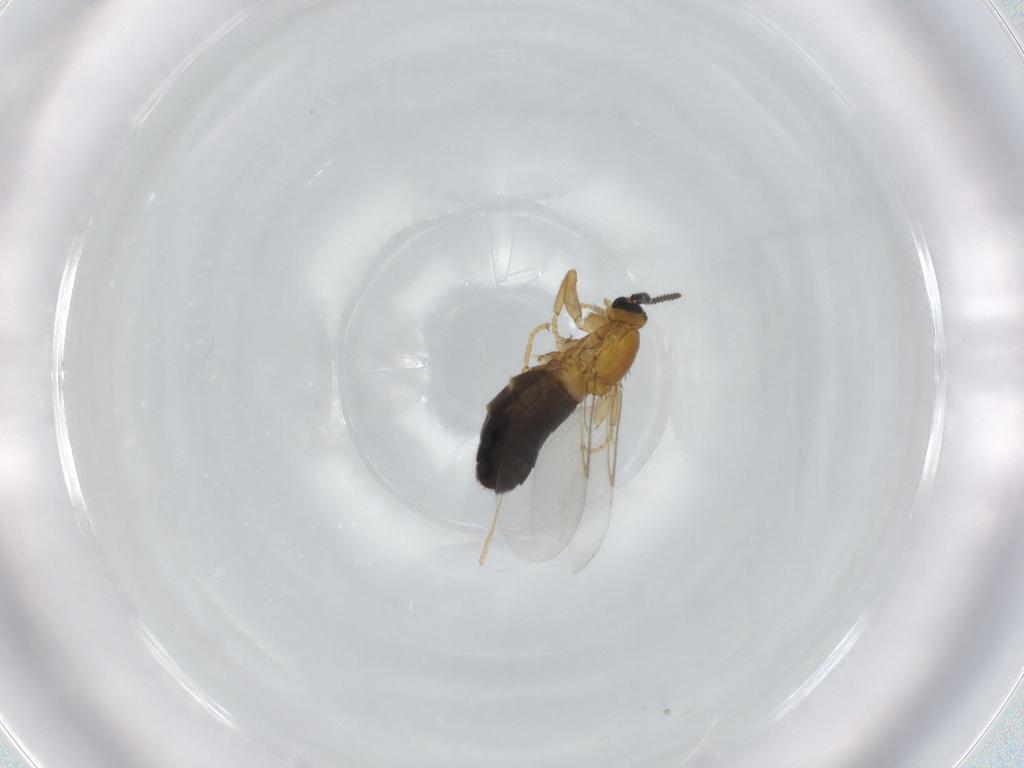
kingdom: Animalia
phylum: Arthropoda
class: Insecta
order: Diptera
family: Scatopsidae
